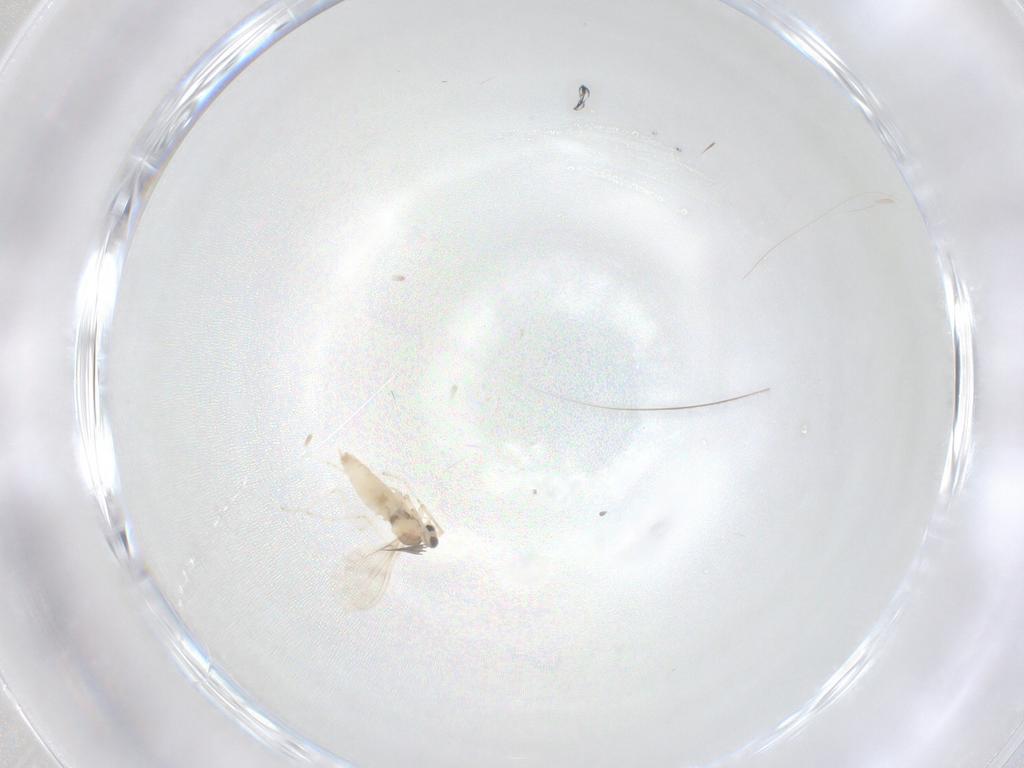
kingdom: Animalia
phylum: Arthropoda
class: Insecta
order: Diptera
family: Cecidomyiidae
